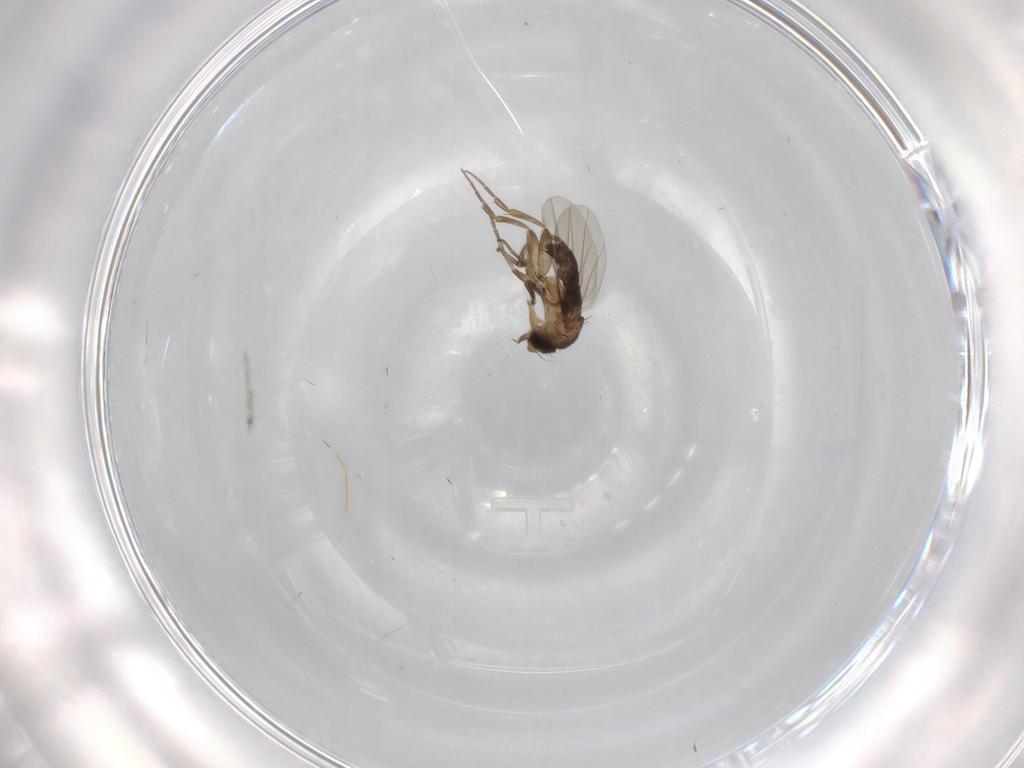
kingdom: Animalia
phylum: Arthropoda
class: Insecta
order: Diptera
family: Phoridae
